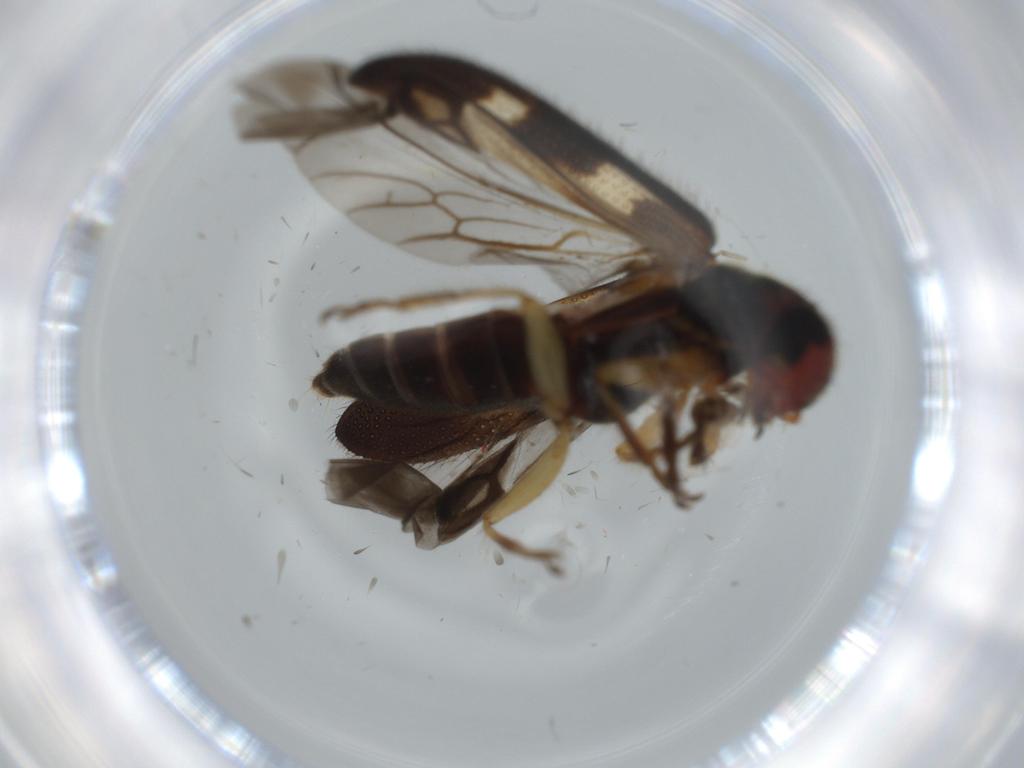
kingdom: Animalia
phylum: Arthropoda
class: Insecta
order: Coleoptera
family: Cleridae
